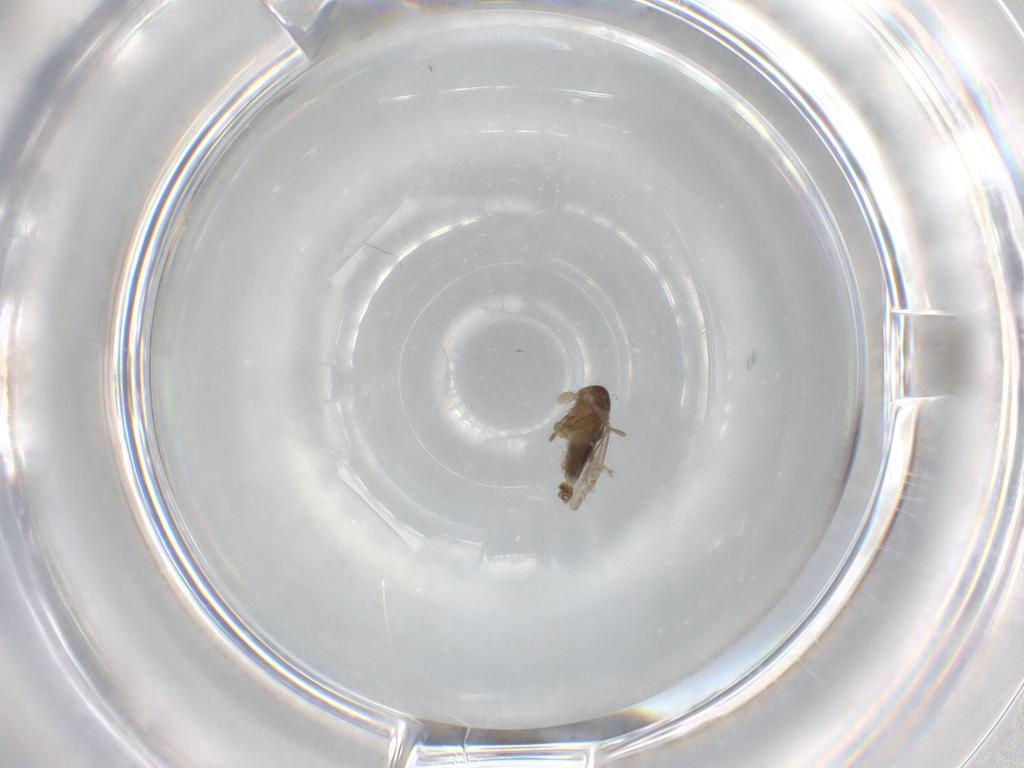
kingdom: Animalia
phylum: Arthropoda
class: Insecta
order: Diptera
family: Phoridae
